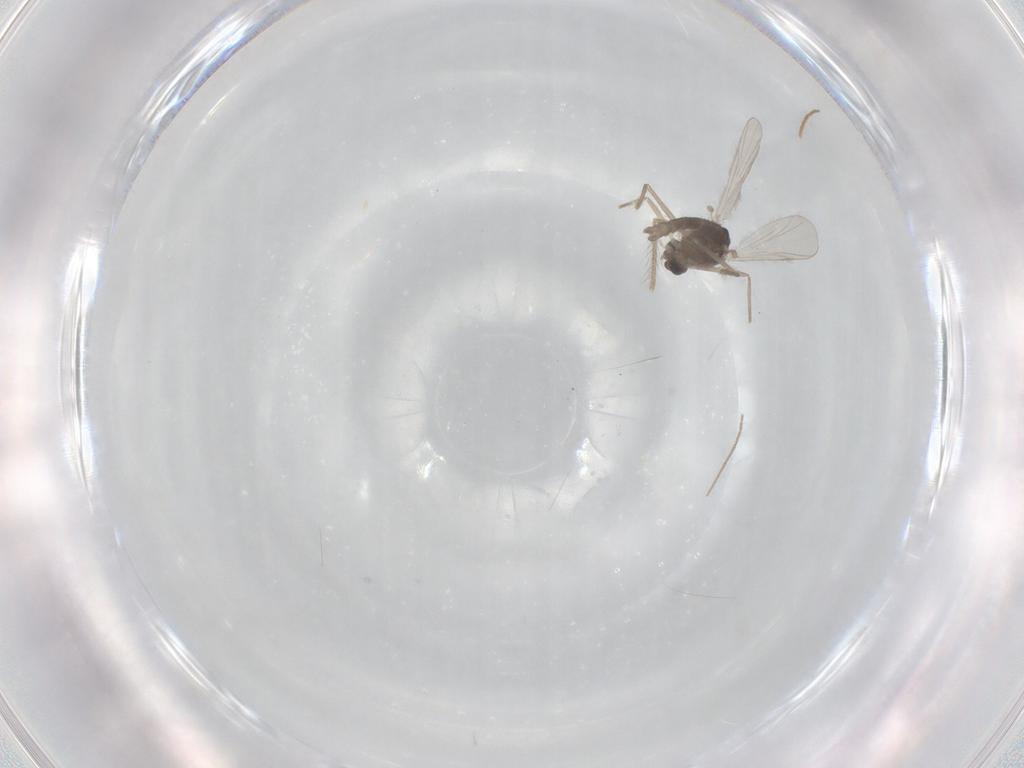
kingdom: Animalia
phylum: Arthropoda
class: Insecta
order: Diptera
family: Chironomidae
